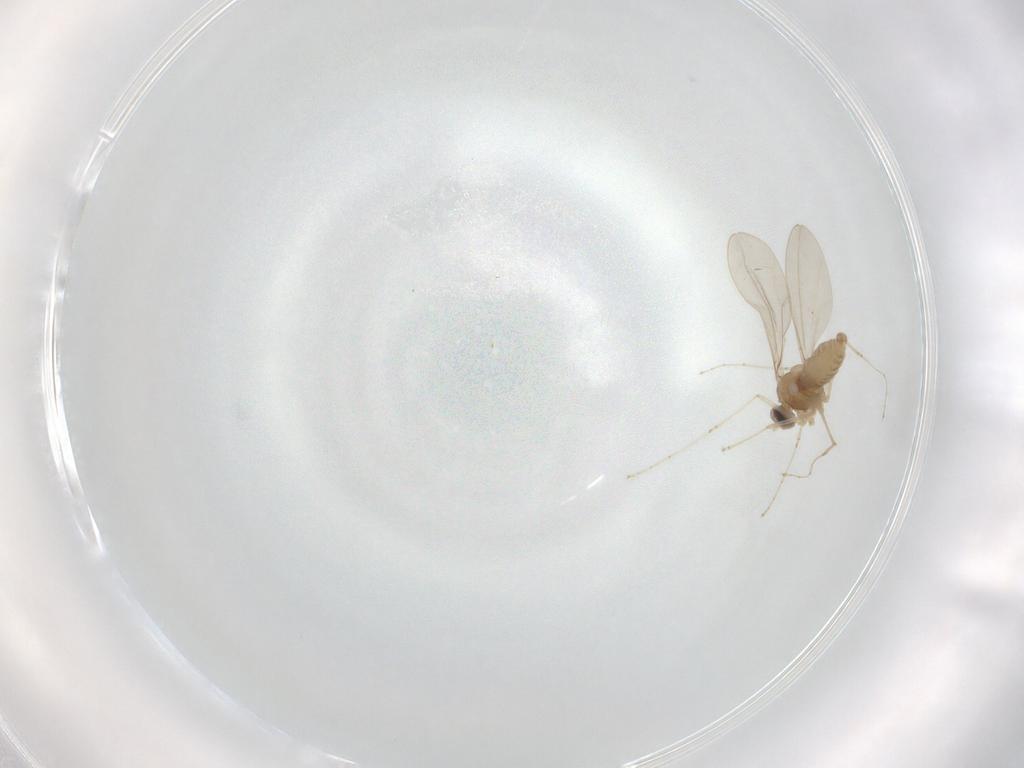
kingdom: Animalia
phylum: Arthropoda
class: Insecta
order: Diptera
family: Cecidomyiidae
